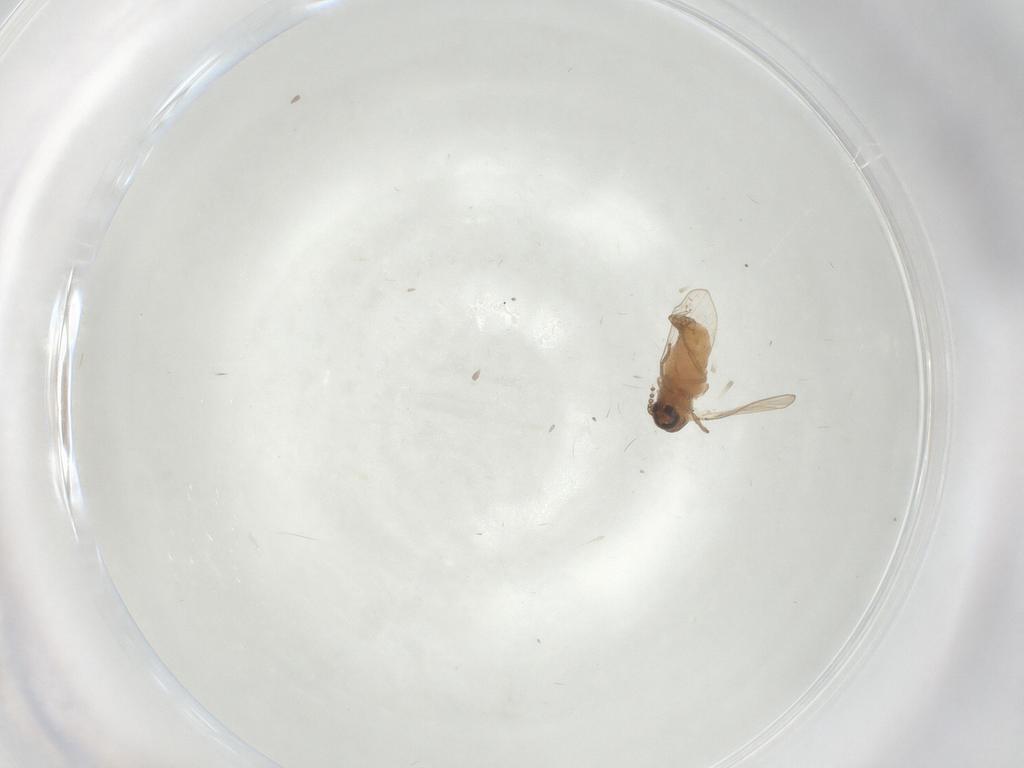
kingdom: Animalia
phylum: Arthropoda
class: Insecta
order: Diptera
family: Psychodidae
